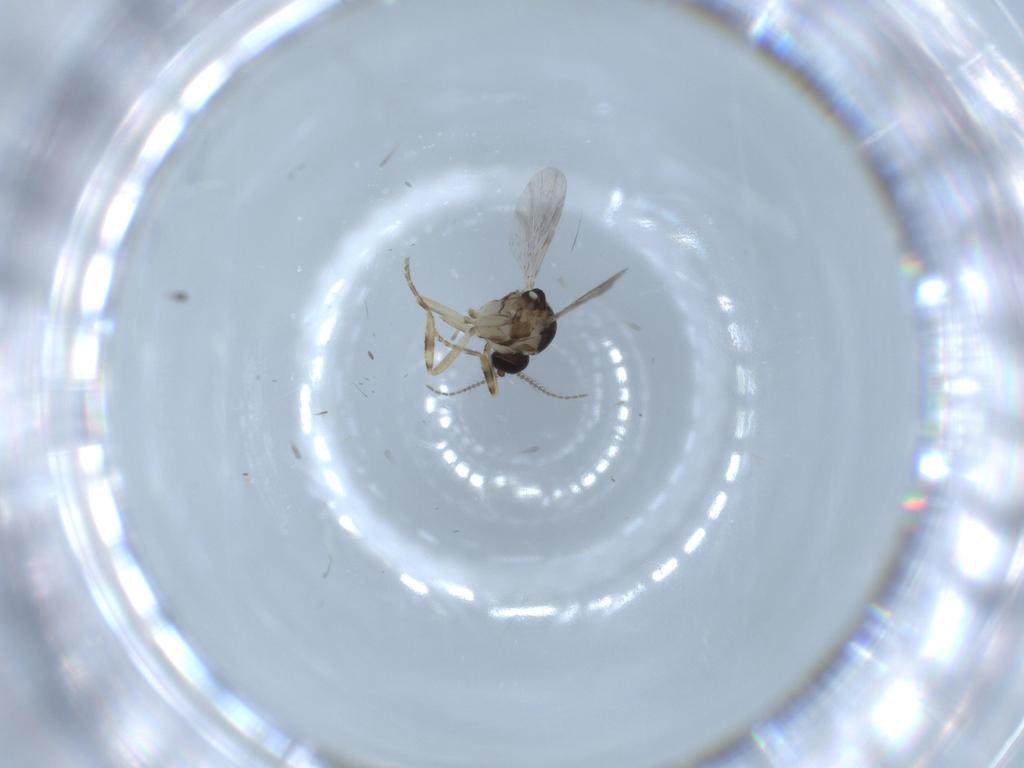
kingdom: Animalia
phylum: Arthropoda
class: Insecta
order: Diptera
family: Ceratopogonidae
